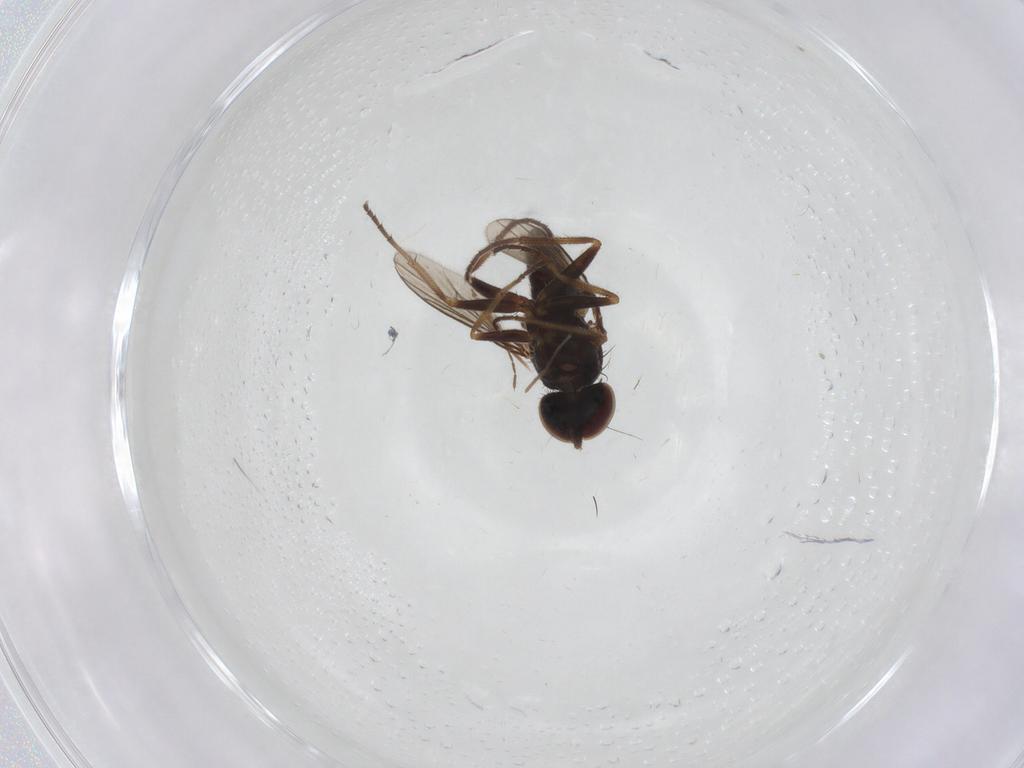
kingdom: Animalia
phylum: Arthropoda
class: Insecta
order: Diptera
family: Dolichopodidae
